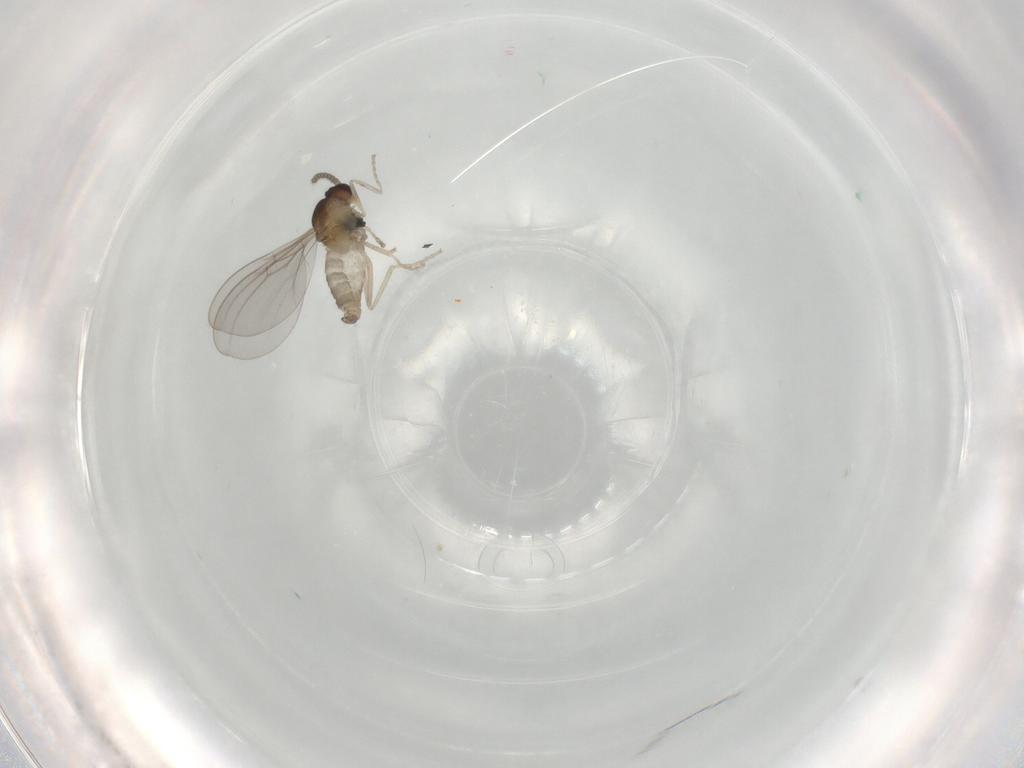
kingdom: Animalia
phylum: Arthropoda
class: Insecta
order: Diptera
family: Cecidomyiidae
